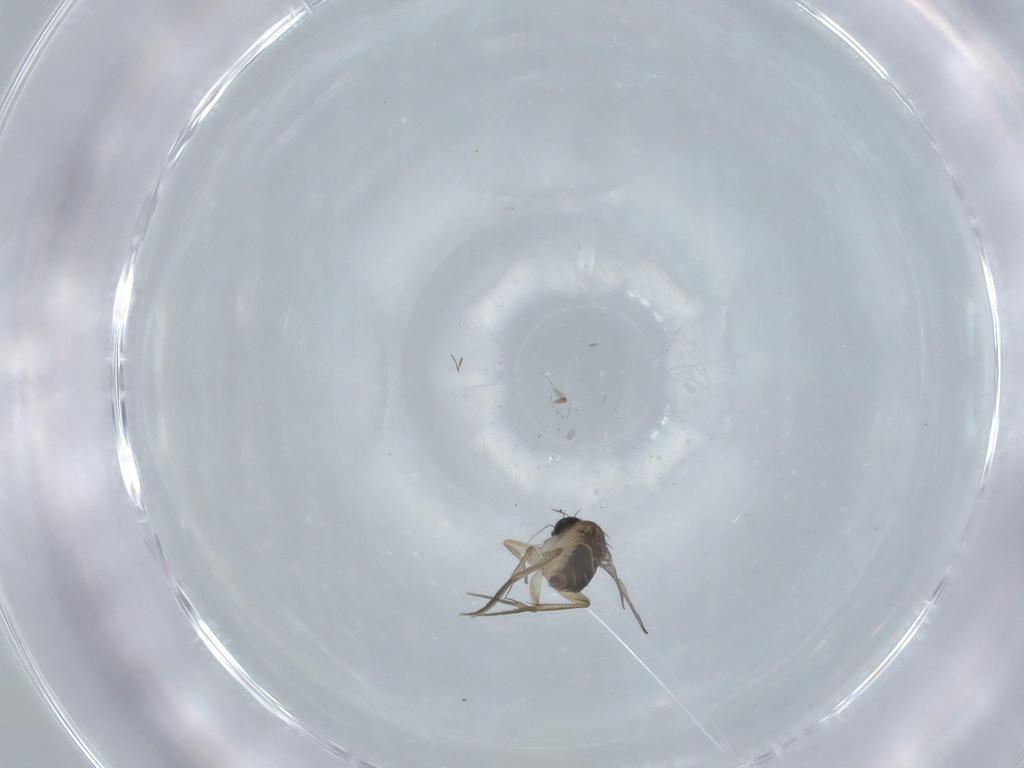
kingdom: Animalia
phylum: Arthropoda
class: Insecta
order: Diptera
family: Phoridae
